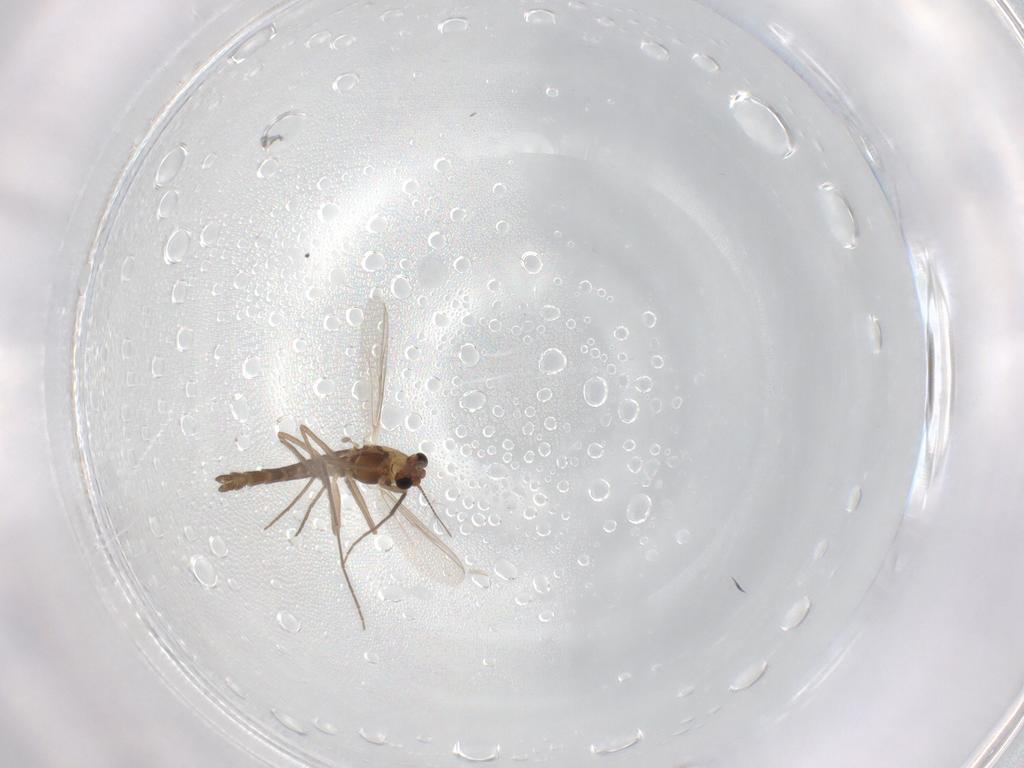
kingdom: Animalia
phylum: Arthropoda
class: Insecta
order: Diptera
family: Chironomidae
